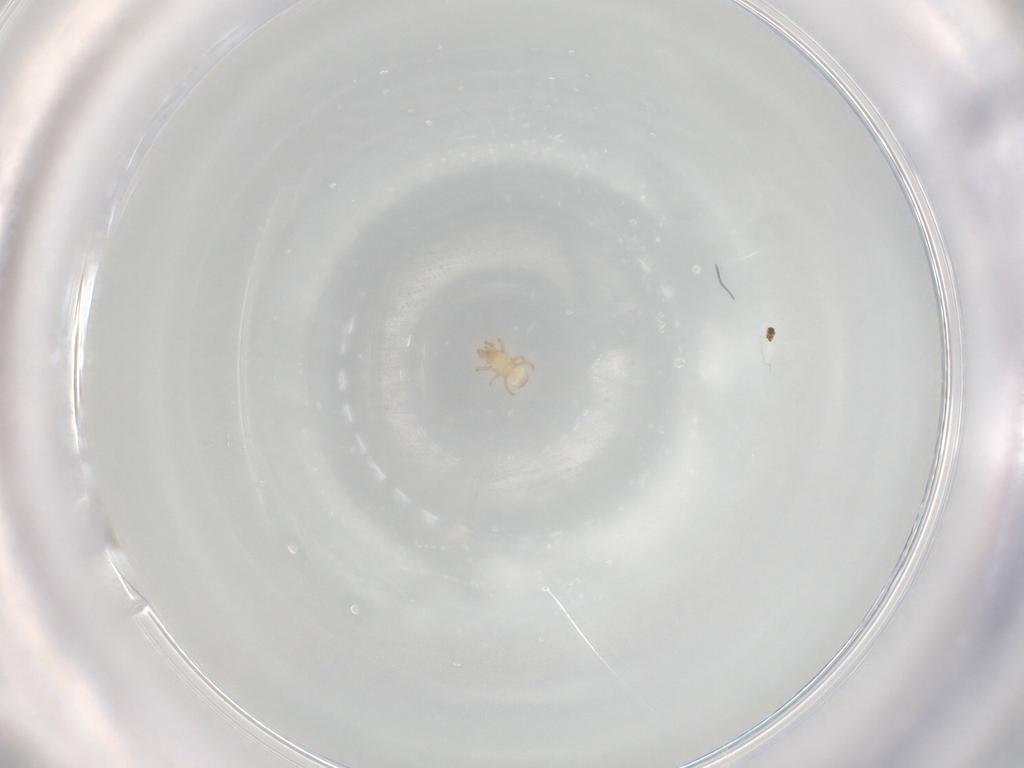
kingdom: Animalia
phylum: Arthropoda
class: Arachnida
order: Mesostigmata
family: Ascidae
